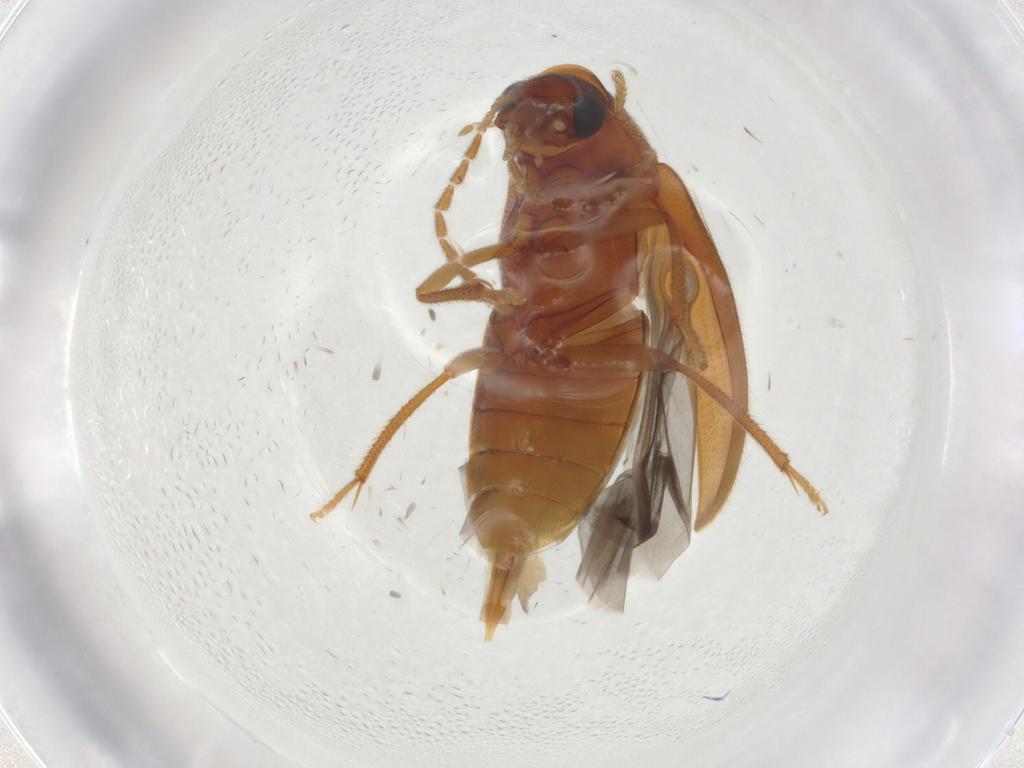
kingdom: Animalia
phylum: Arthropoda
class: Insecta
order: Coleoptera
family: Ptilodactylidae
